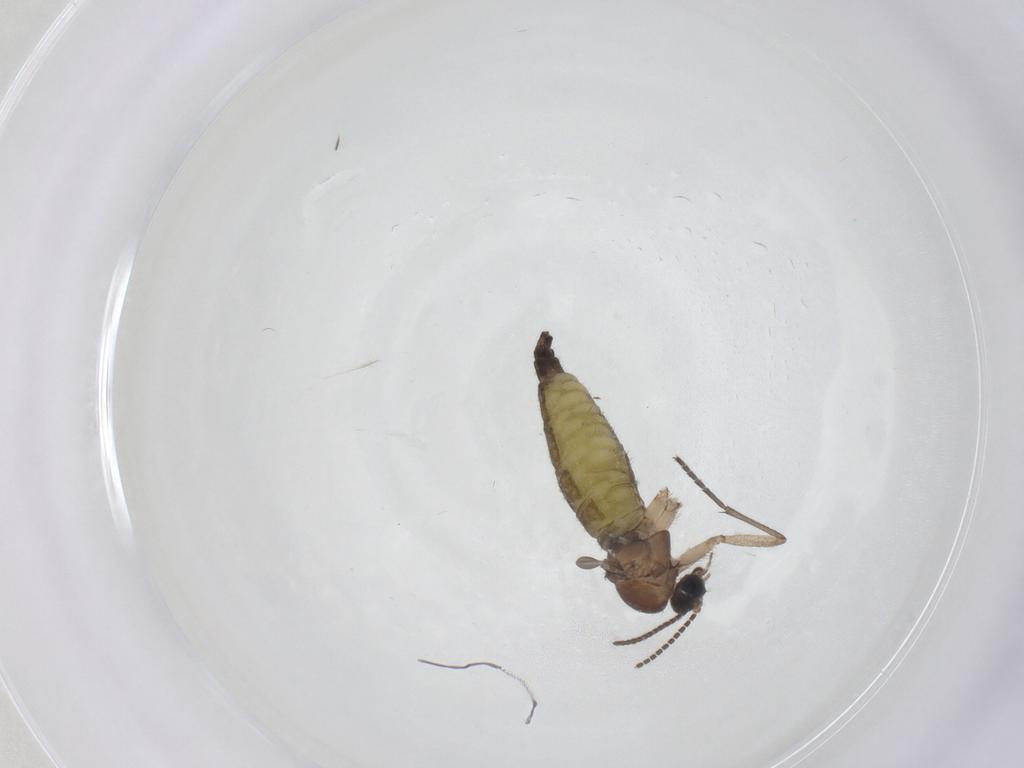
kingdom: Animalia
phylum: Arthropoda
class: Insecta
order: Diptera
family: Sciaridae
